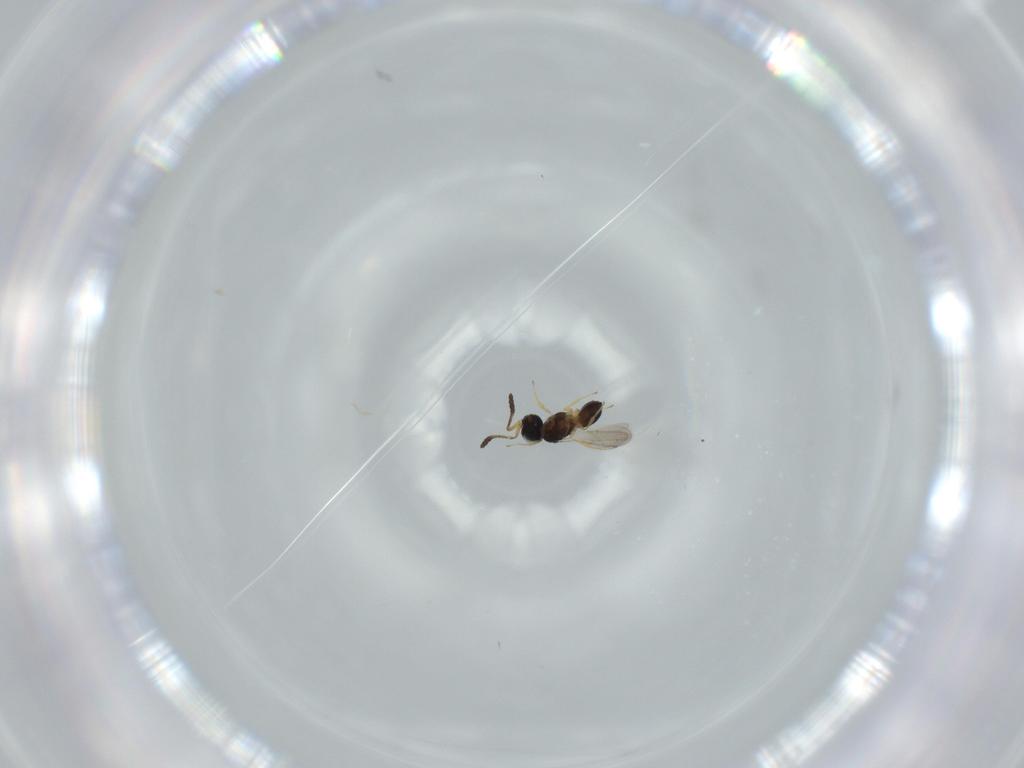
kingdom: Animalia
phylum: Arthropoda
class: Insecta
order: Hymenoptera
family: Scelionidae
